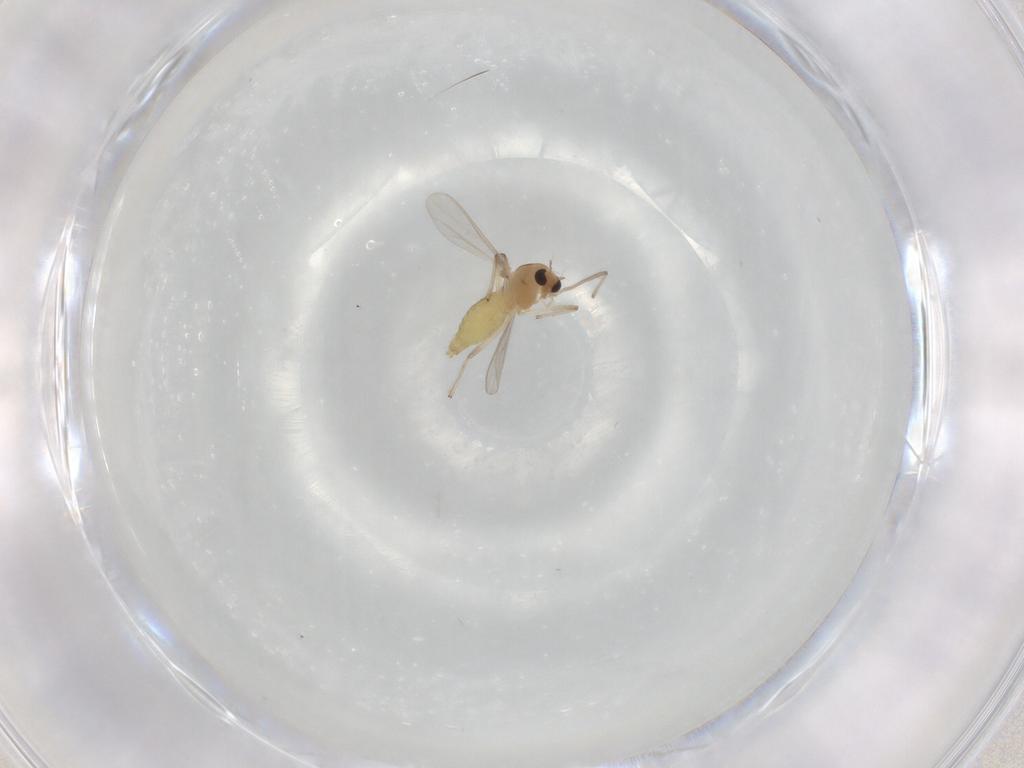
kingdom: Animalia
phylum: Arthropoda
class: Insecta
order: Diptera
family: Chironomidae
